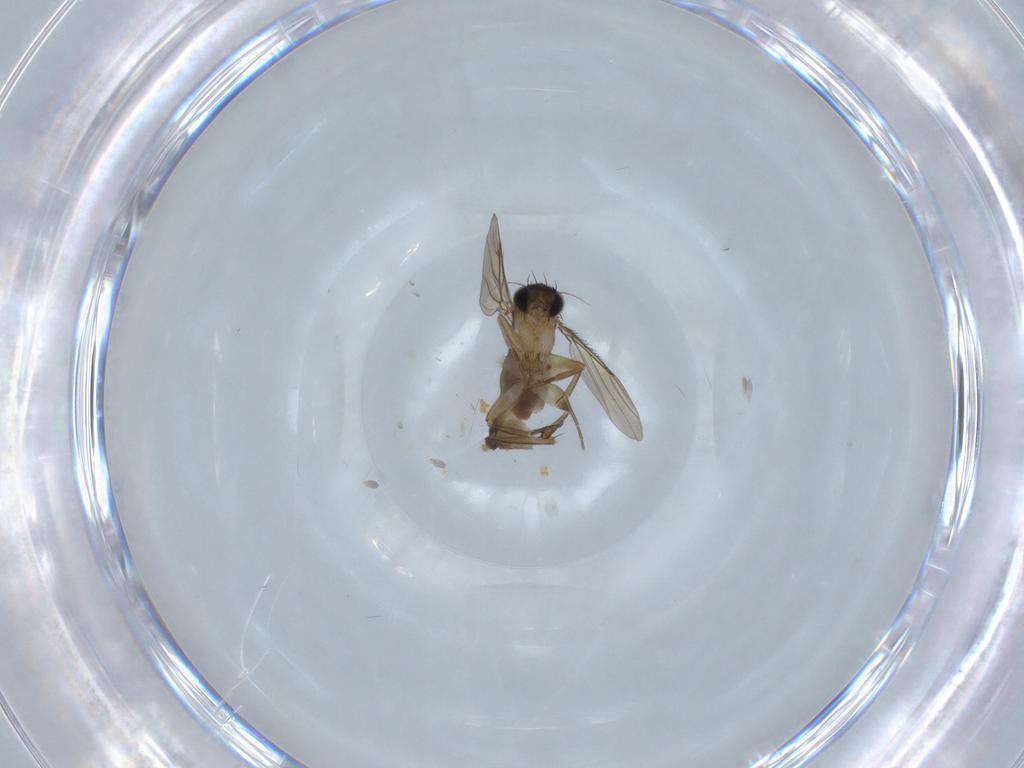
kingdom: Animalia
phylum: Arthropoda
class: Insecta
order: Diptera
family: Phoridae
